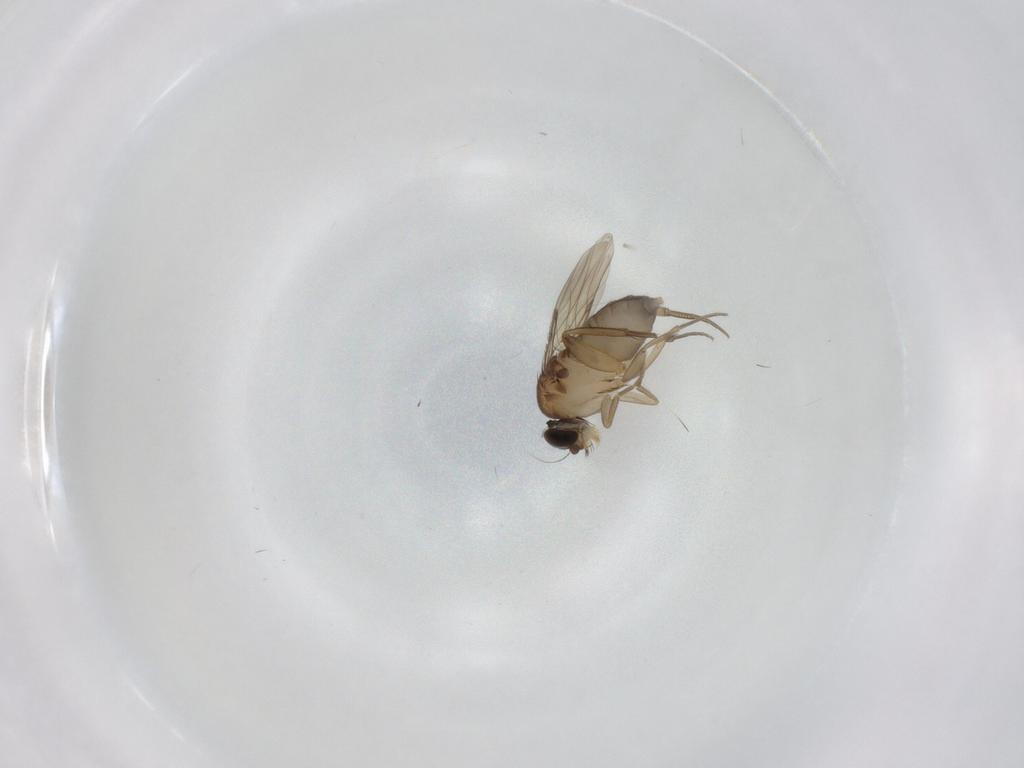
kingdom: Animalia
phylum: Arthropoda
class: Insecta
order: Diptera
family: Phoridae
